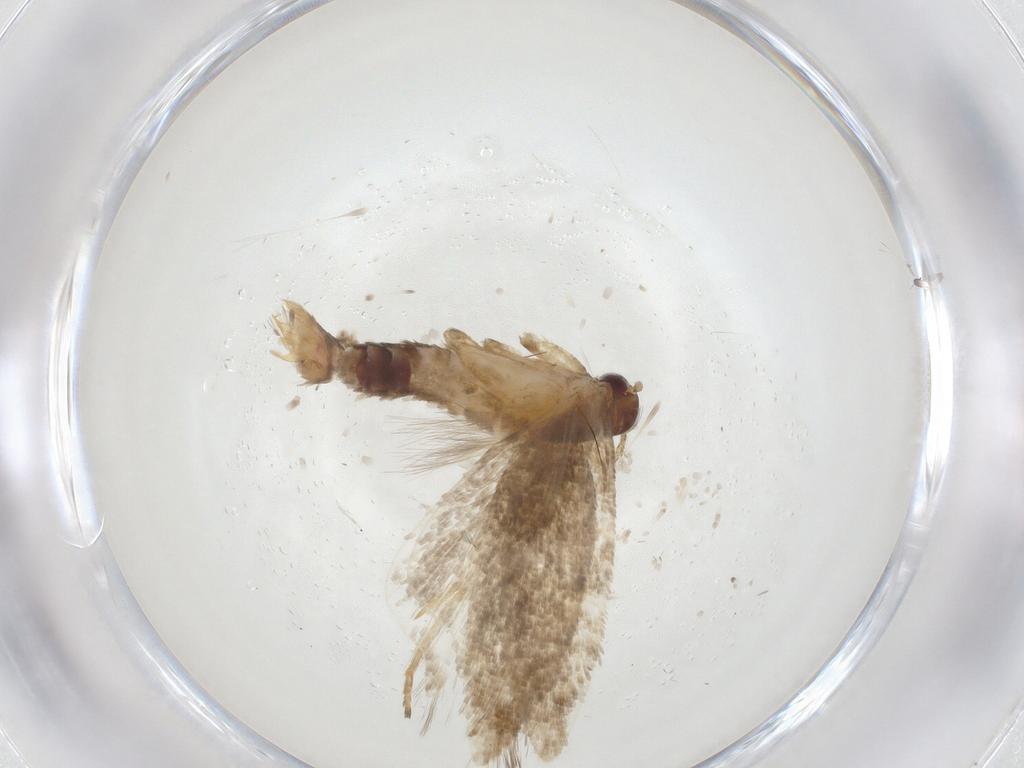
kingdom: Animalia
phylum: Arthropoda
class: Insecta
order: Lepidoptera
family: Gelechiidae
